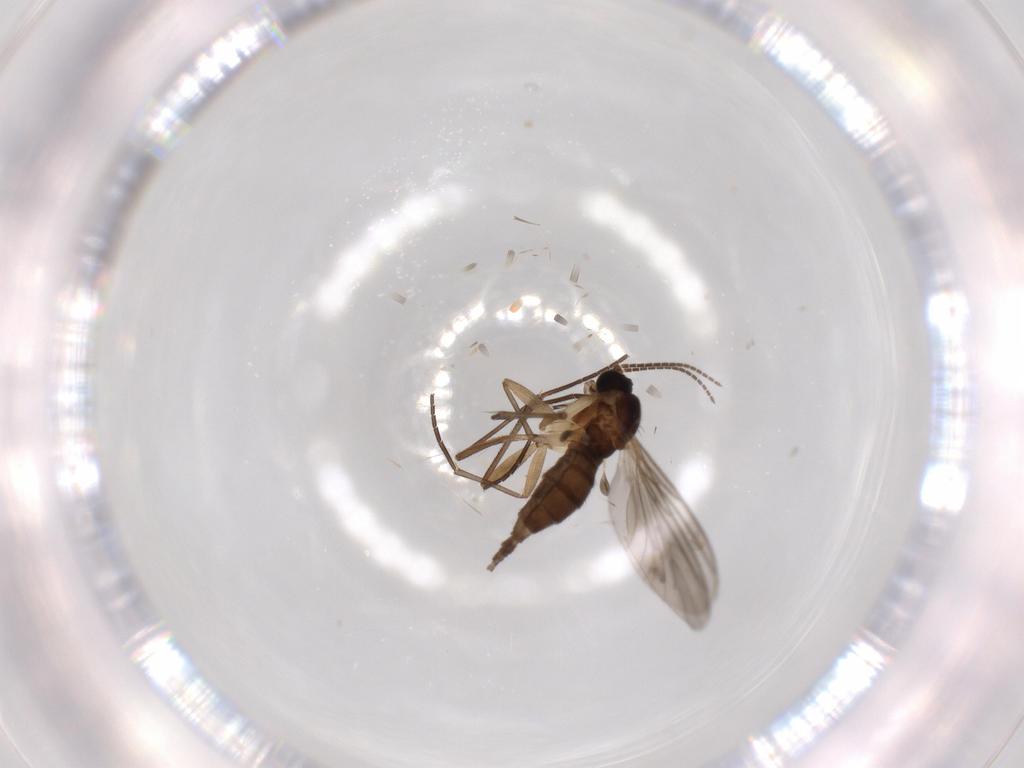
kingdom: Animalia
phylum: Arthropoda
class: Insecta
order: Diptera
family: Sciaridae
